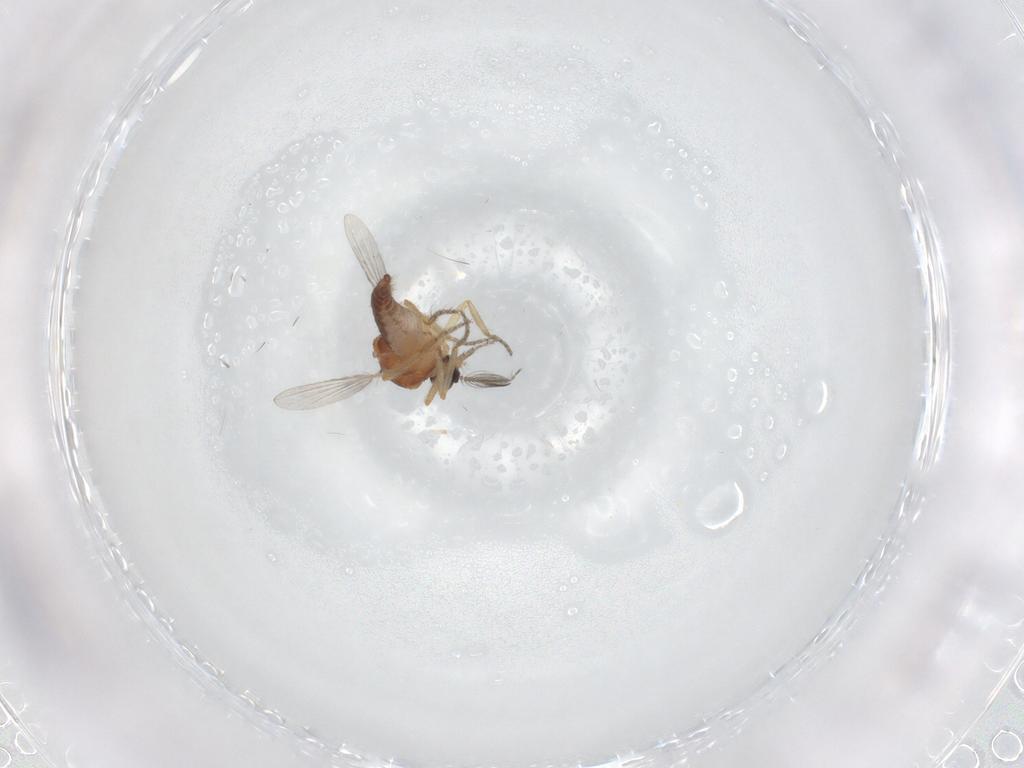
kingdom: Animalia
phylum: Arthropoda
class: Insecta
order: Diptera
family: Ceratopogonidae
